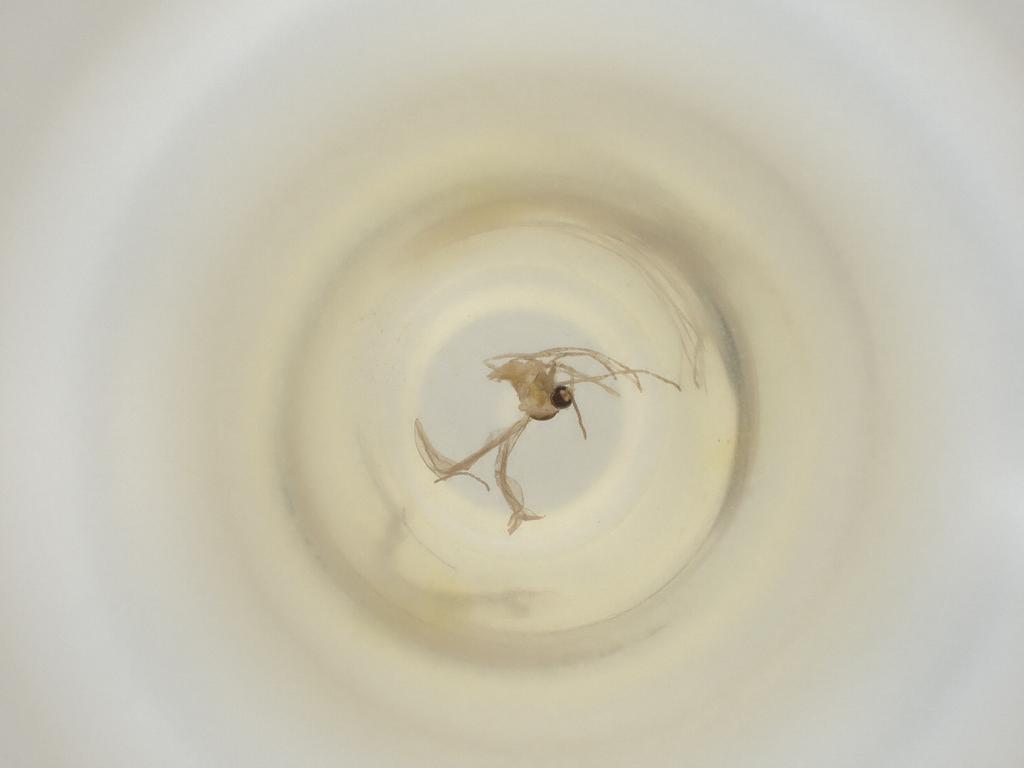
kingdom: Animalia
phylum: Arthropoda
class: Insecta
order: Diptera
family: Cecidomyiidae
